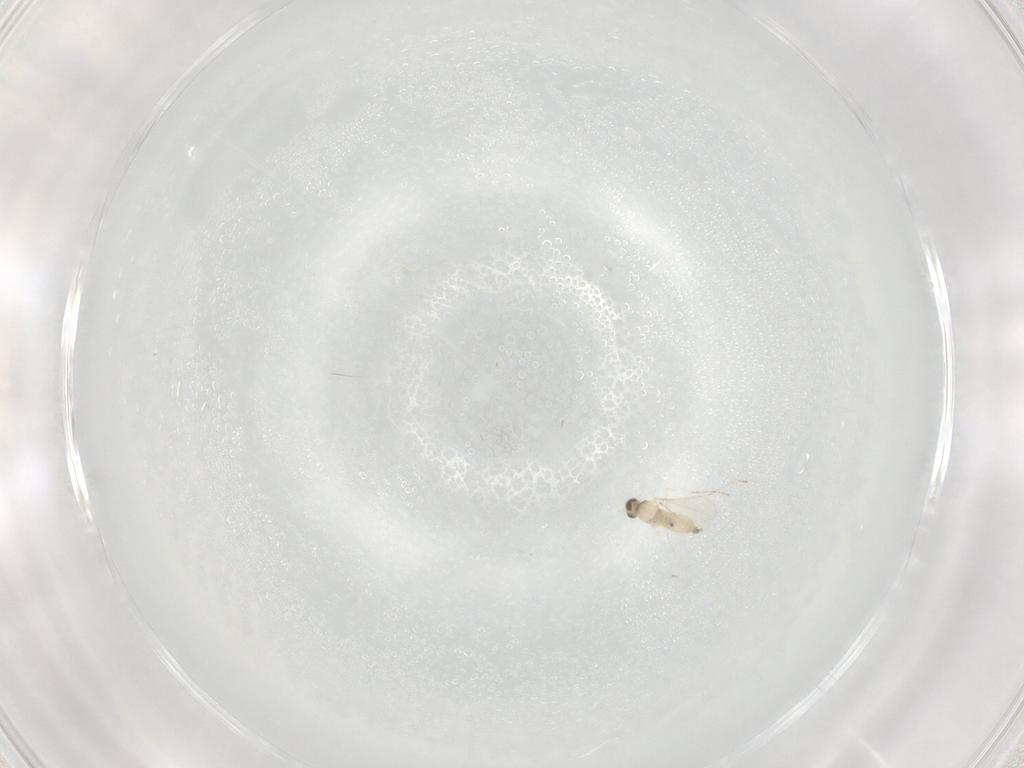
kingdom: Animalia
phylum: Arthropoda
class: Insecta
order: Diptera
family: Cecidomyiidae
